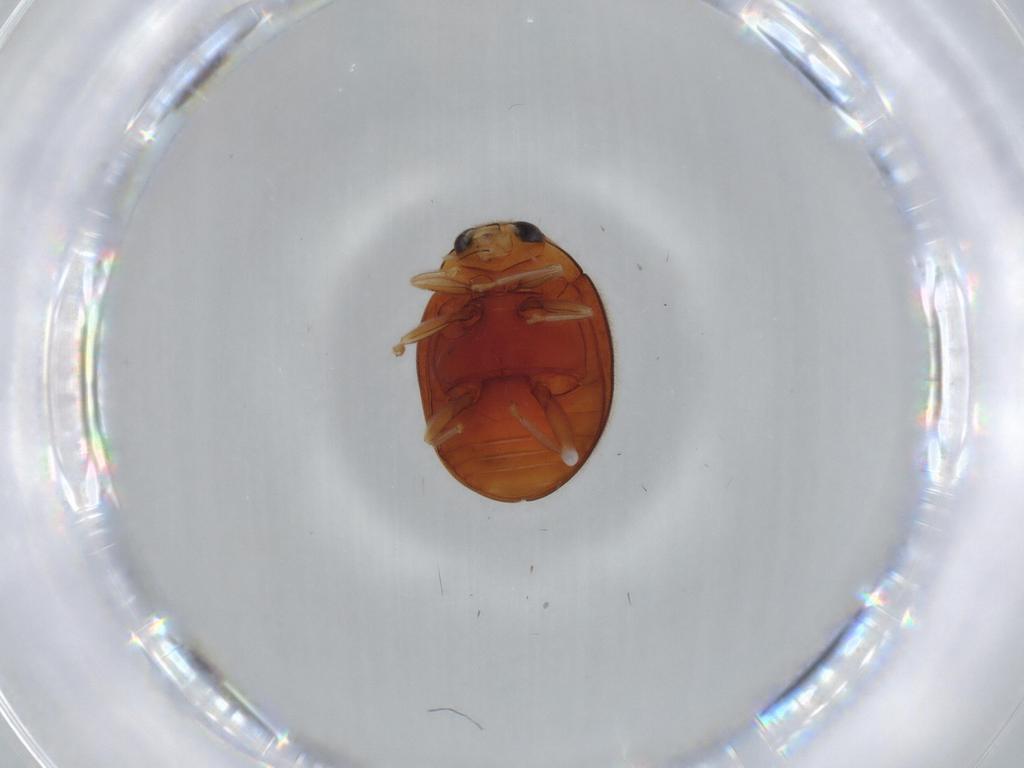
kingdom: Animalia
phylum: Arthropoda
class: Insecta
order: Coleoptera
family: Coccinellidae
